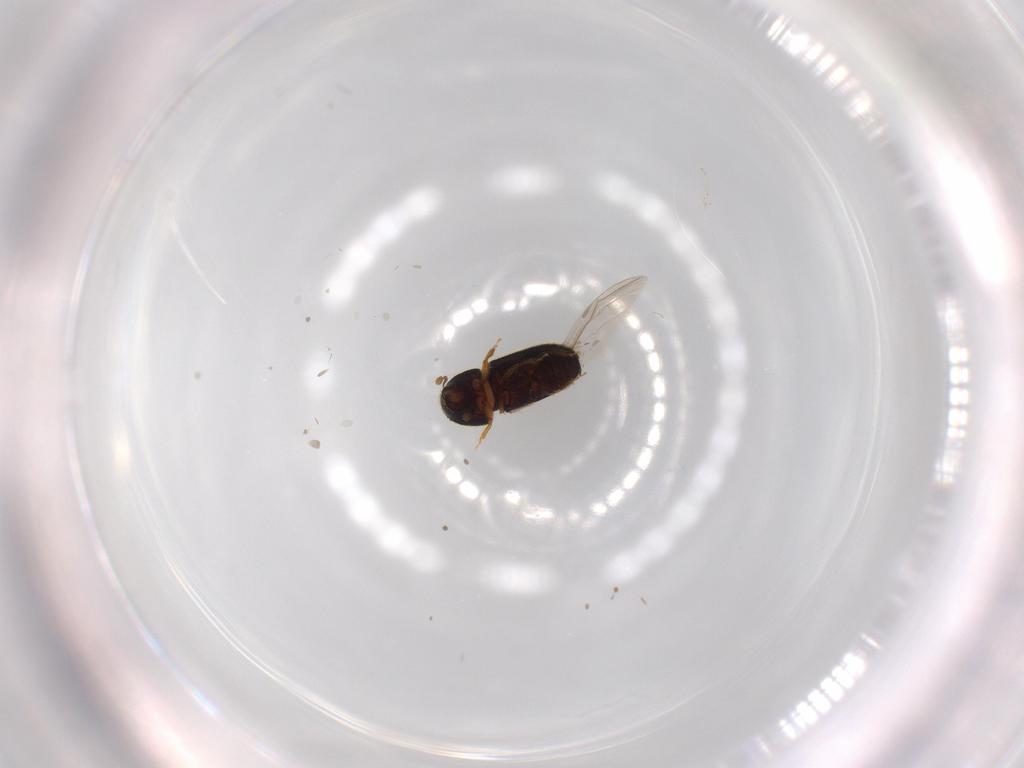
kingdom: Animalia
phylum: Arthropoda
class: Insecta
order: Coleoptera
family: Curculionidae
